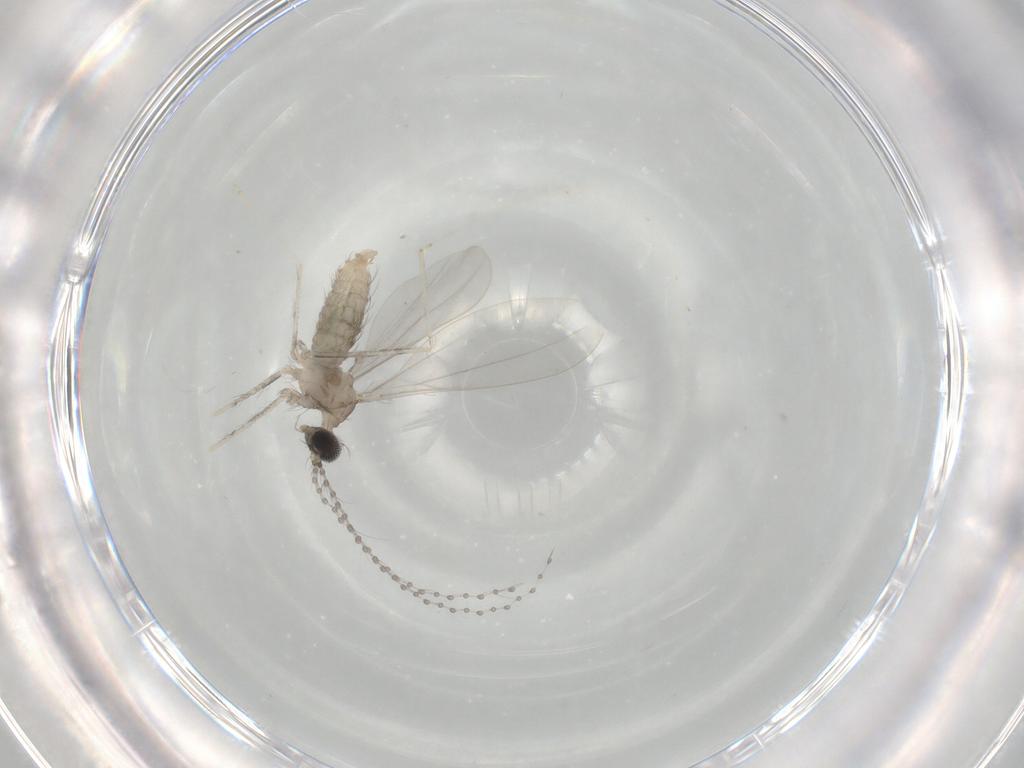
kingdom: Animalia
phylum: Arthropoda
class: Insecta
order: Diptera
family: Cecidomyiidae
